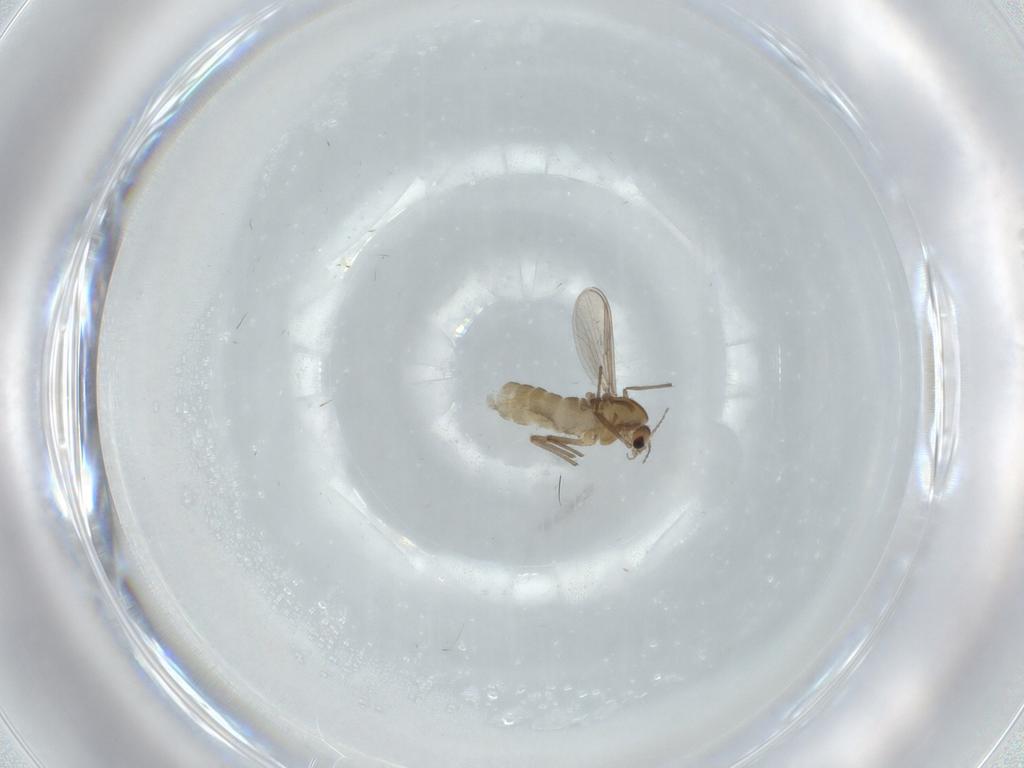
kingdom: Animalia
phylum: Arthropoda
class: Insecta
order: Diptera
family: Chironomidae
